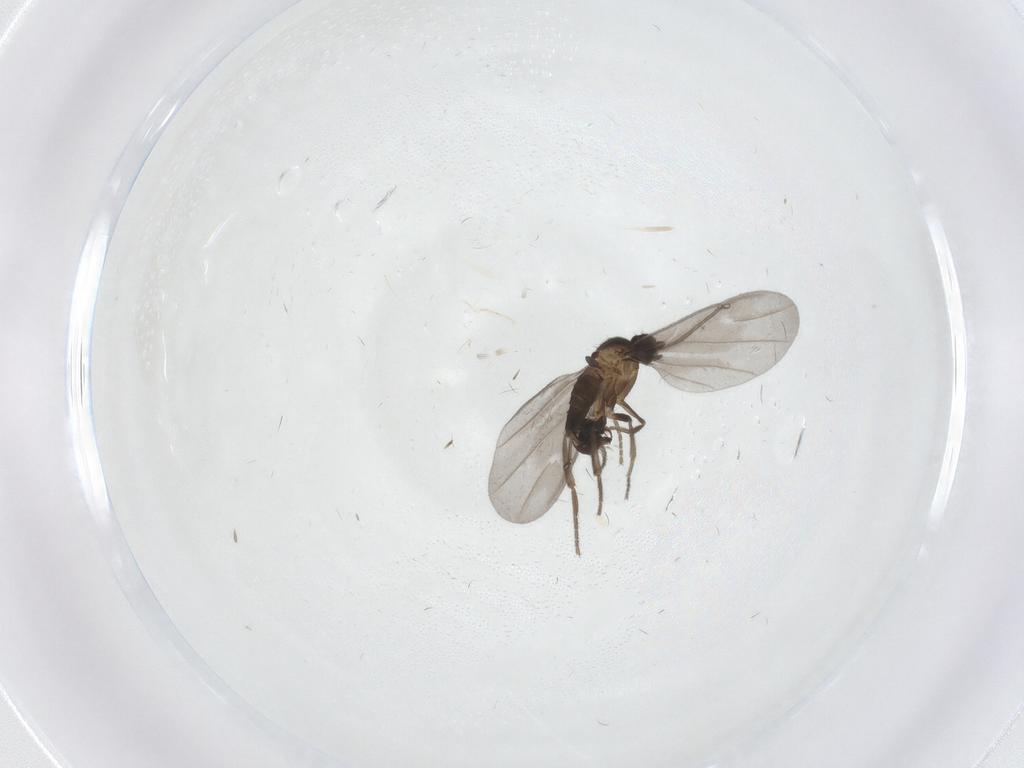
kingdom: Animalia
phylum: Arthropoda
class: Insecta
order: Diptera
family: Phoridae
